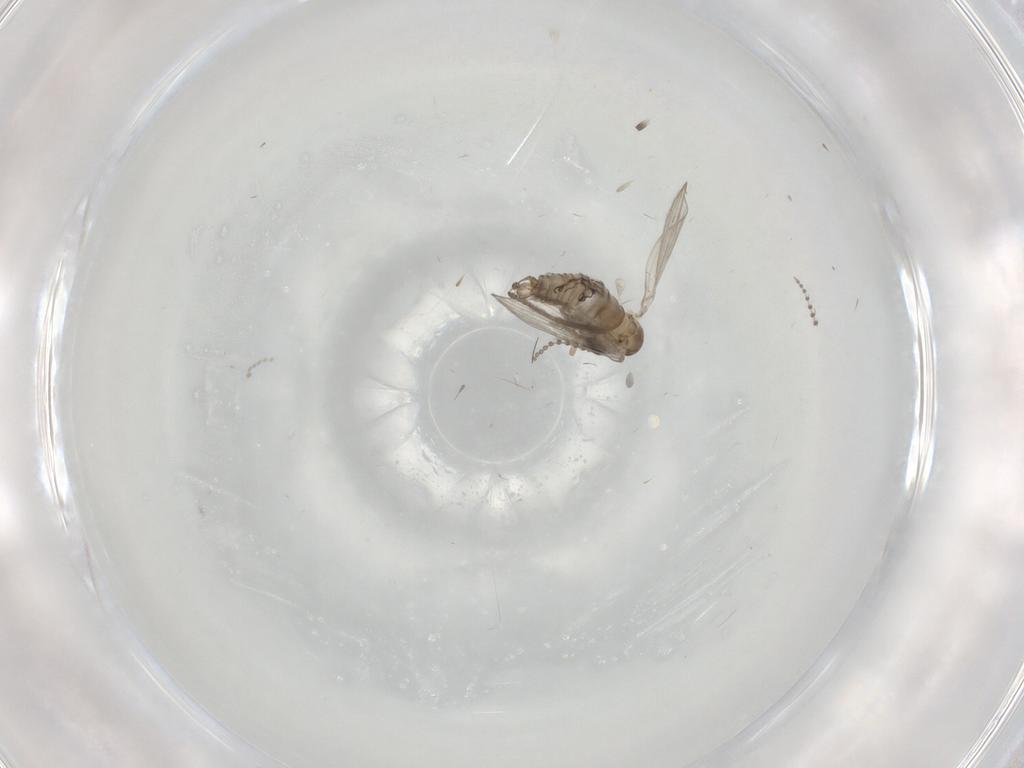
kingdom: Animalia
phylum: Arthropoda
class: Insecta
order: Diptera
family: Cecidomyiidae
